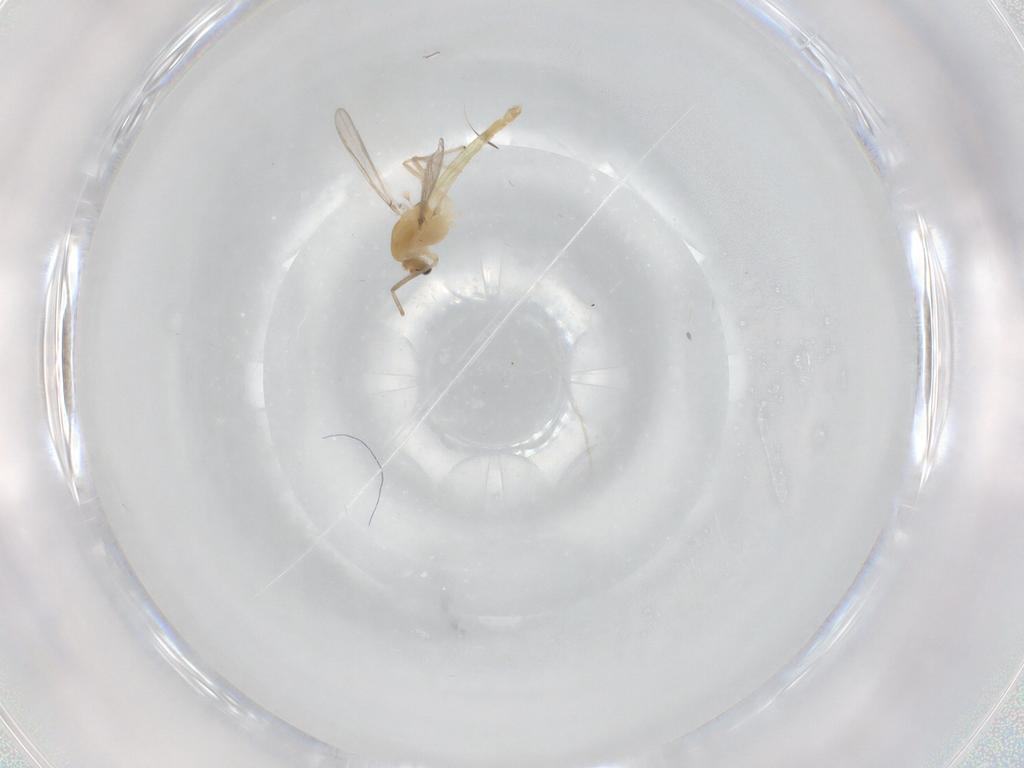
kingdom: Animalia
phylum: Arthropoda
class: Insecta
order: Diptera
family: Chironomidae
